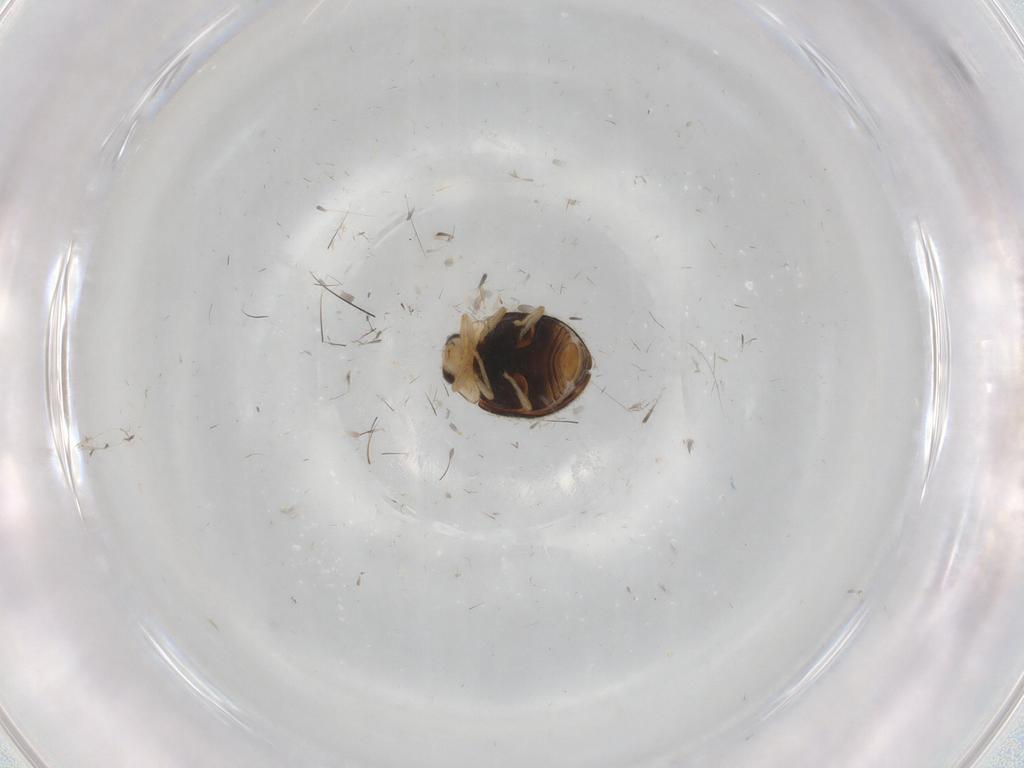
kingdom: Animalia
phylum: Arthropoda
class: Insecta
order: Coleoptera
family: Coccinellidae
